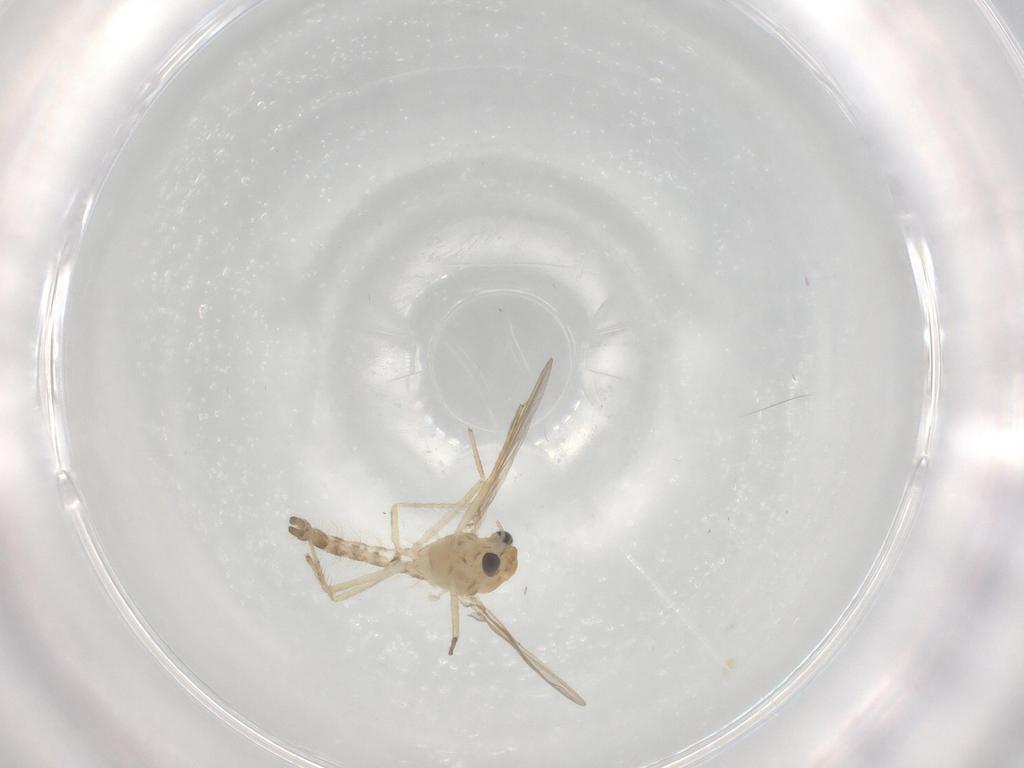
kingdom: Animalia
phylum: Arthropoda
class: Insecta
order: Diptera
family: Chironomidae
